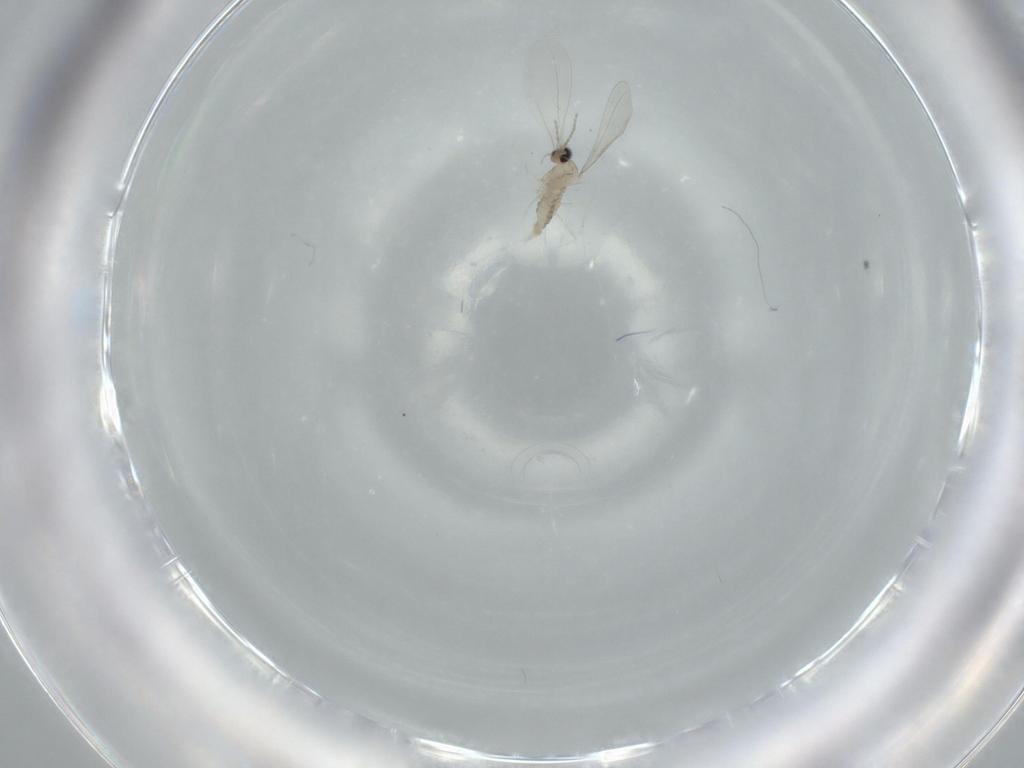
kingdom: Animalia
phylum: Arthropoda
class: Insecta
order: Diptera
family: Cecidomyiidae
